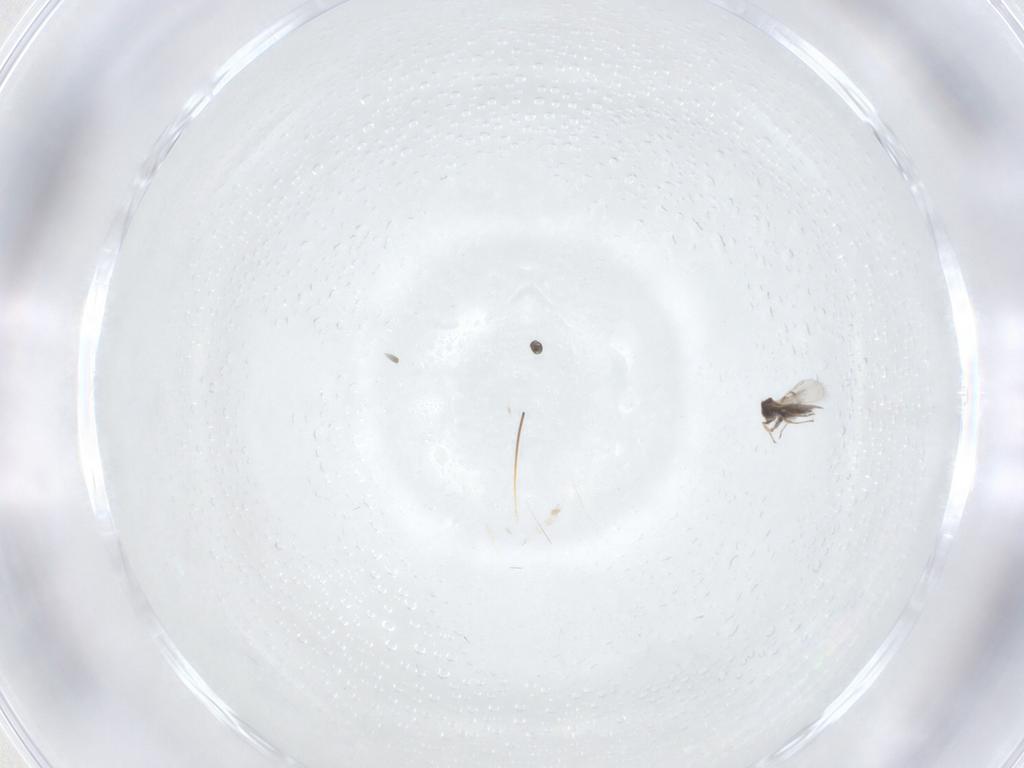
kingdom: Animalia
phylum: Arthropoda
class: Insecta
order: Hymenoptera
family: Trichogrammatidae
